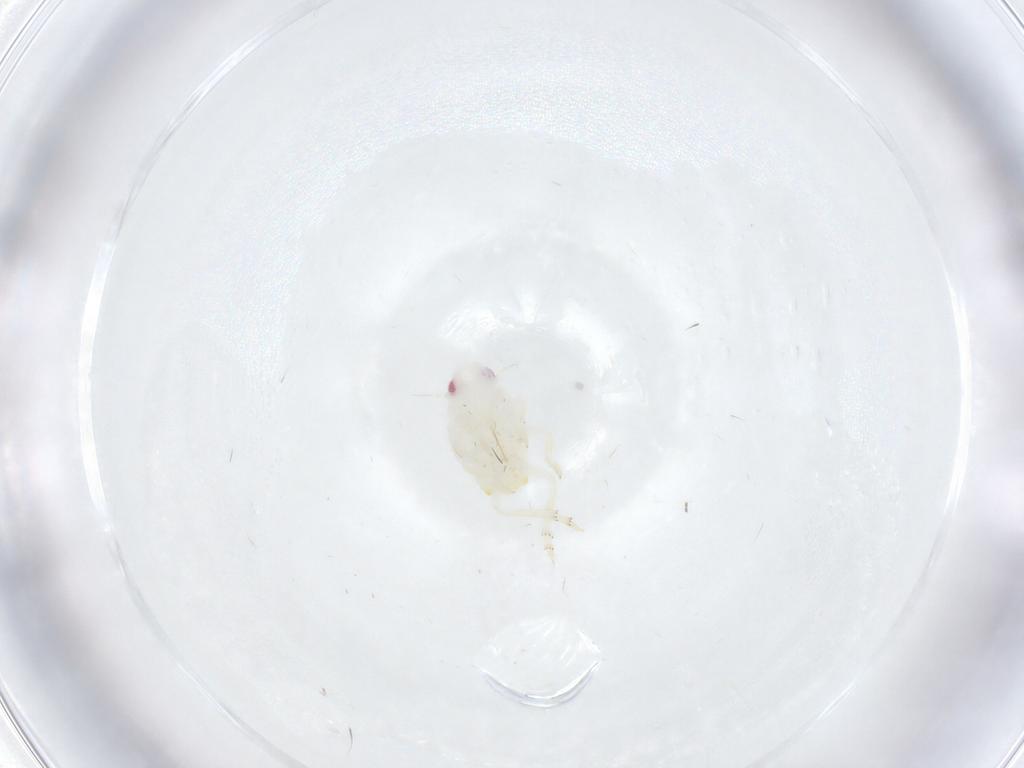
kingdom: Animalia
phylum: Arthropoda
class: Insecta
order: Hemiptera
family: Flatidae
